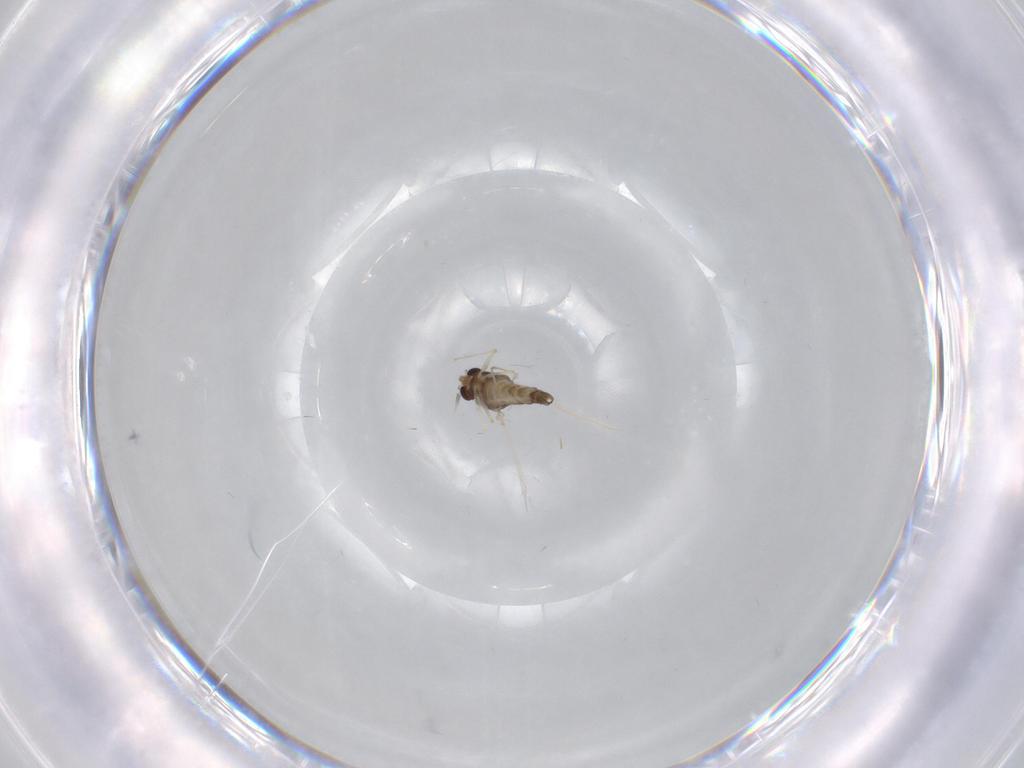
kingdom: Animalia
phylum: Arthropoda
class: Insecta
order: Diptera
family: Chironomidae
